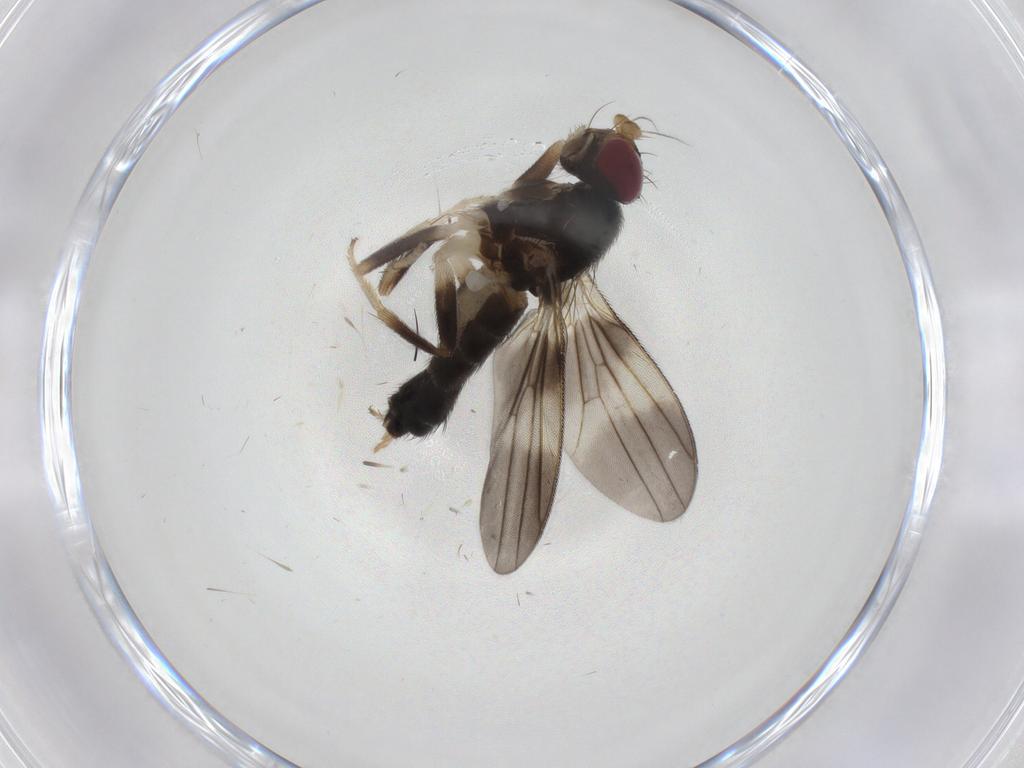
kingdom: Animalia
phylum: Arthropoda
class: Insecta
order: Diptera
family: Clusiidae
